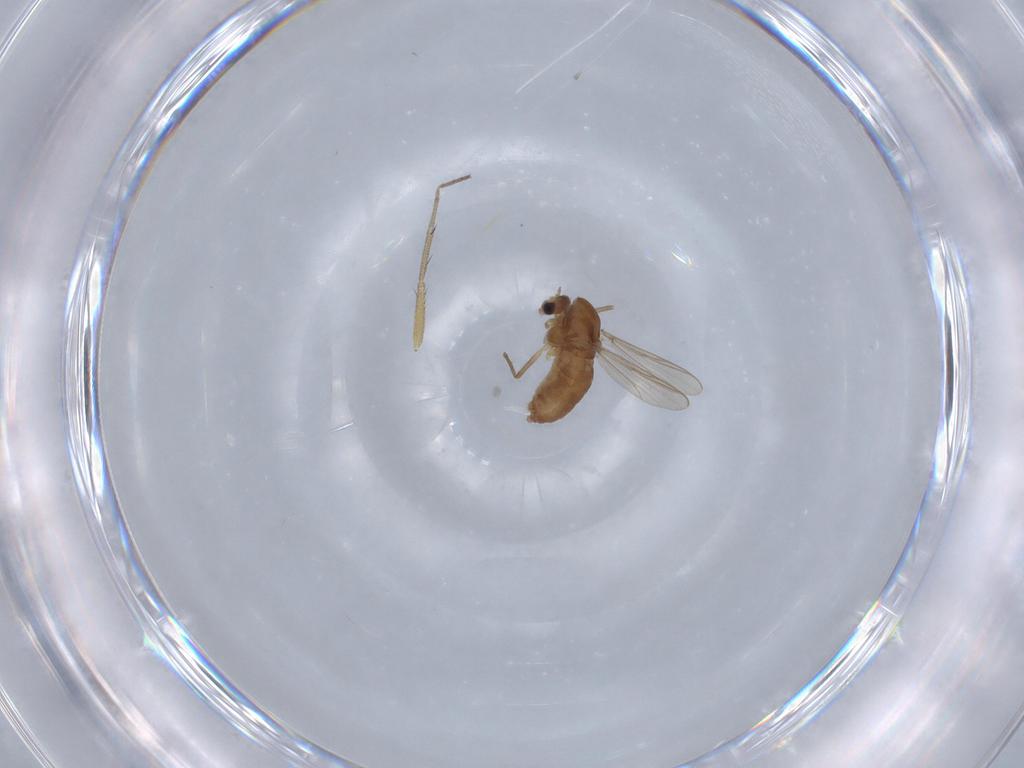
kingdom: Animalia
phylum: Arthropoda
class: Insecta
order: Diptera
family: Chironomidae
